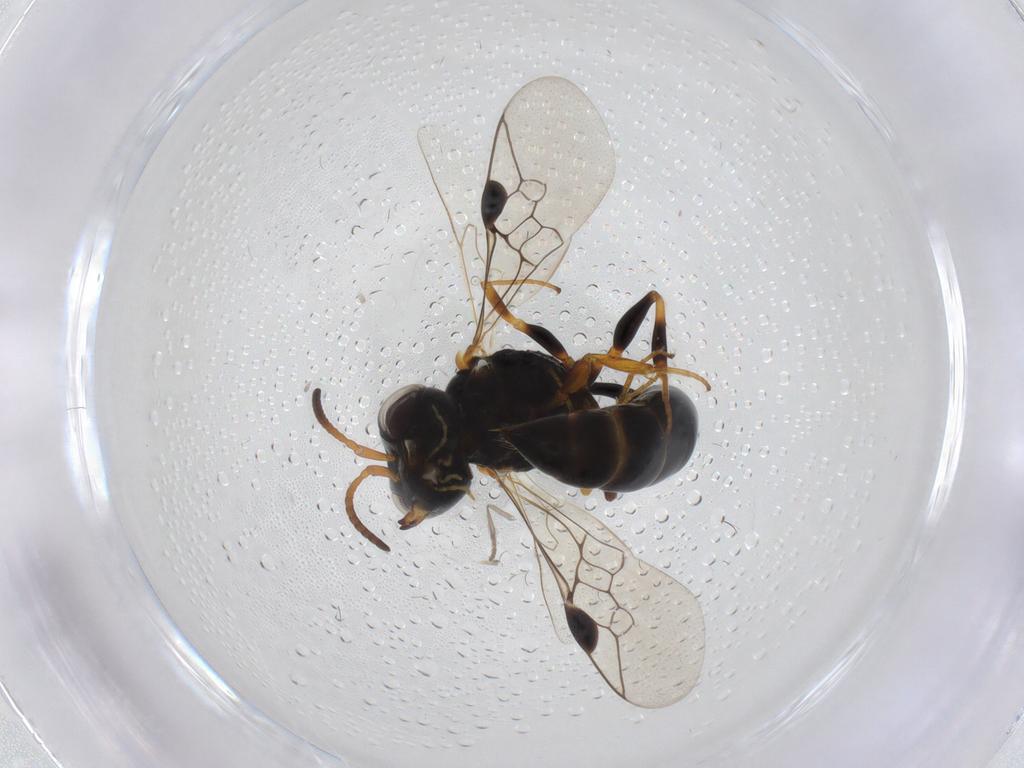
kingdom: Animalia
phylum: Arthropoda
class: Insecta
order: Hymenoptera
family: Pemphredonidae
